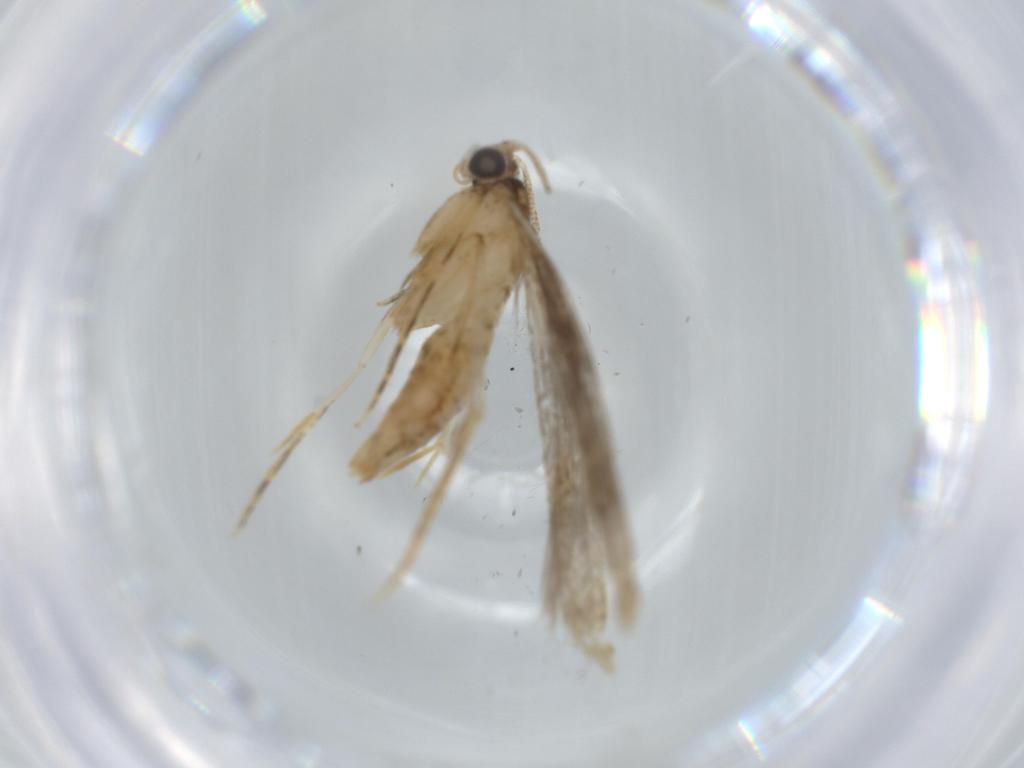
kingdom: Animalia
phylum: Arthropoda
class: Insecta
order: Lepidoptera
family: Tineidae
